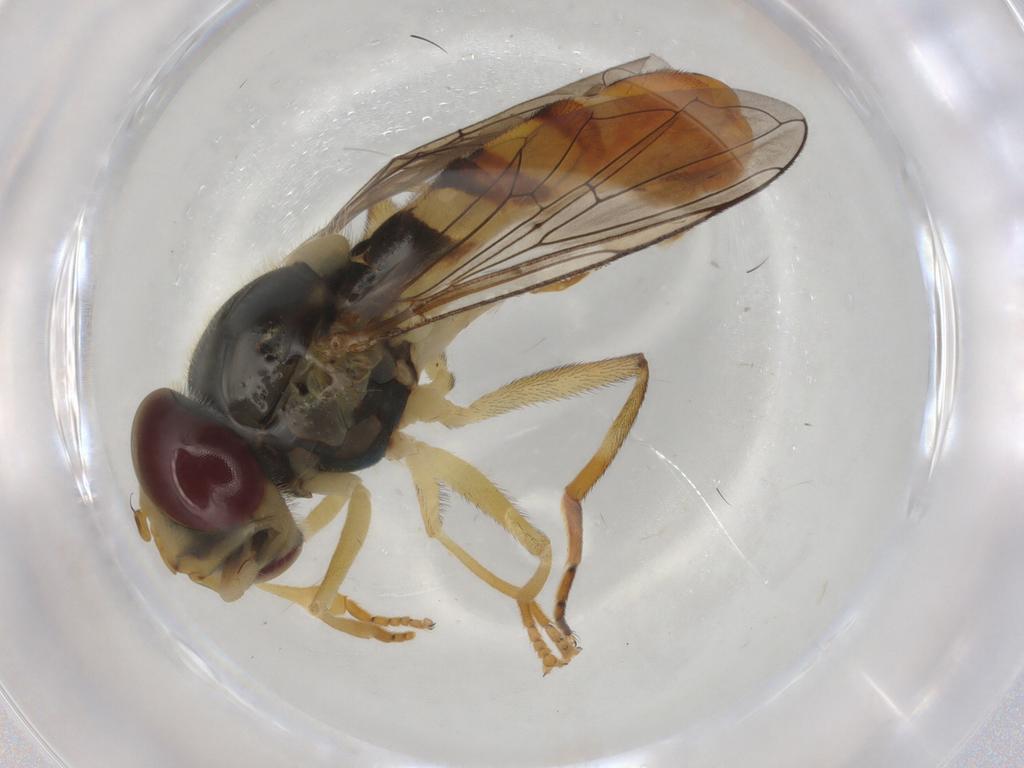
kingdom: Animalia
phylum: Arthropoda
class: Insecta
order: Diptera
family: Syrphidae
